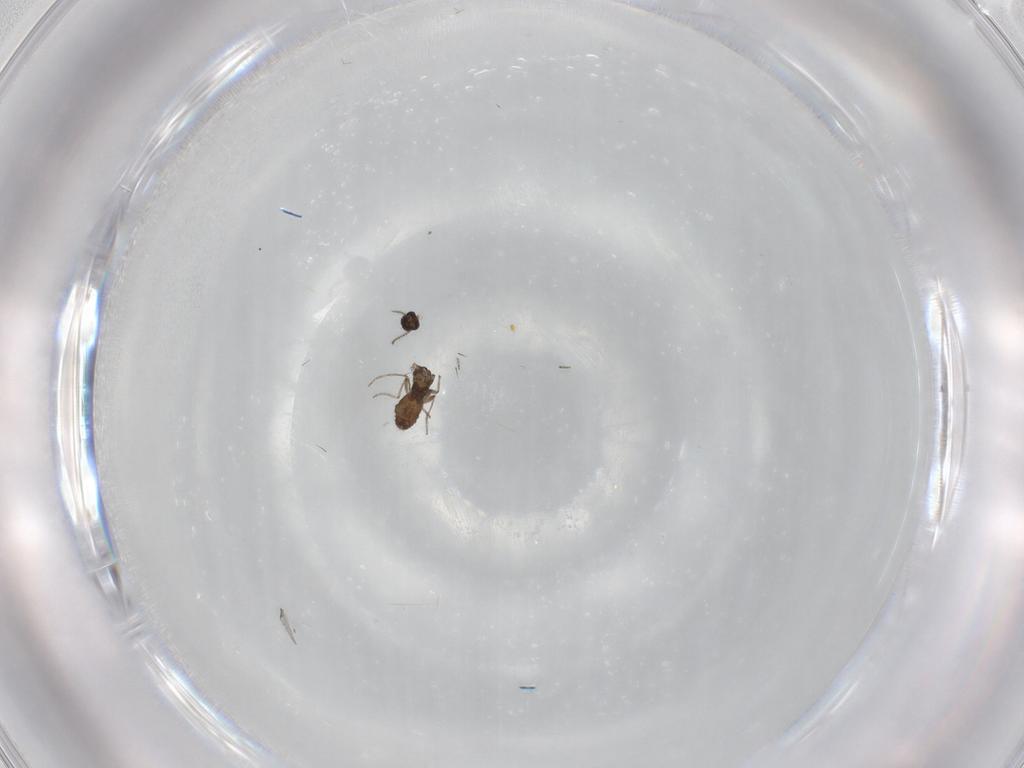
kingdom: Animalia
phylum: Arthropoda
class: Insecta
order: Diptera
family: Ceratopogonidae
